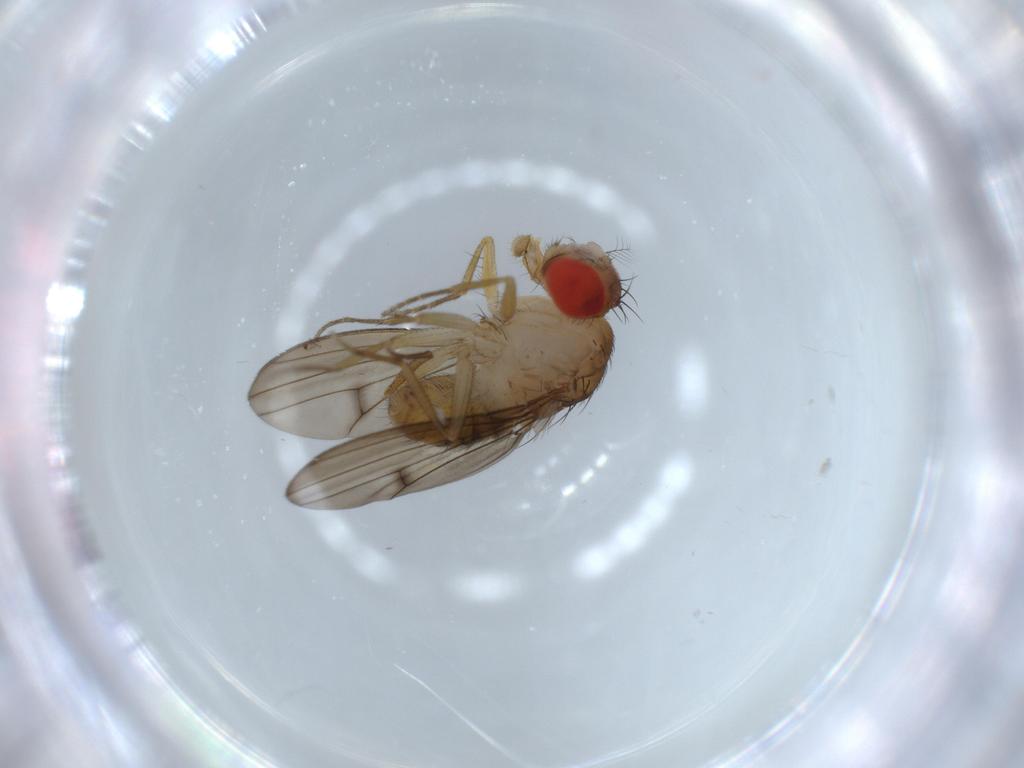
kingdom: Animalia
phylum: Arthropoda
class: Insecta
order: Diptera
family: Drosophilidae
